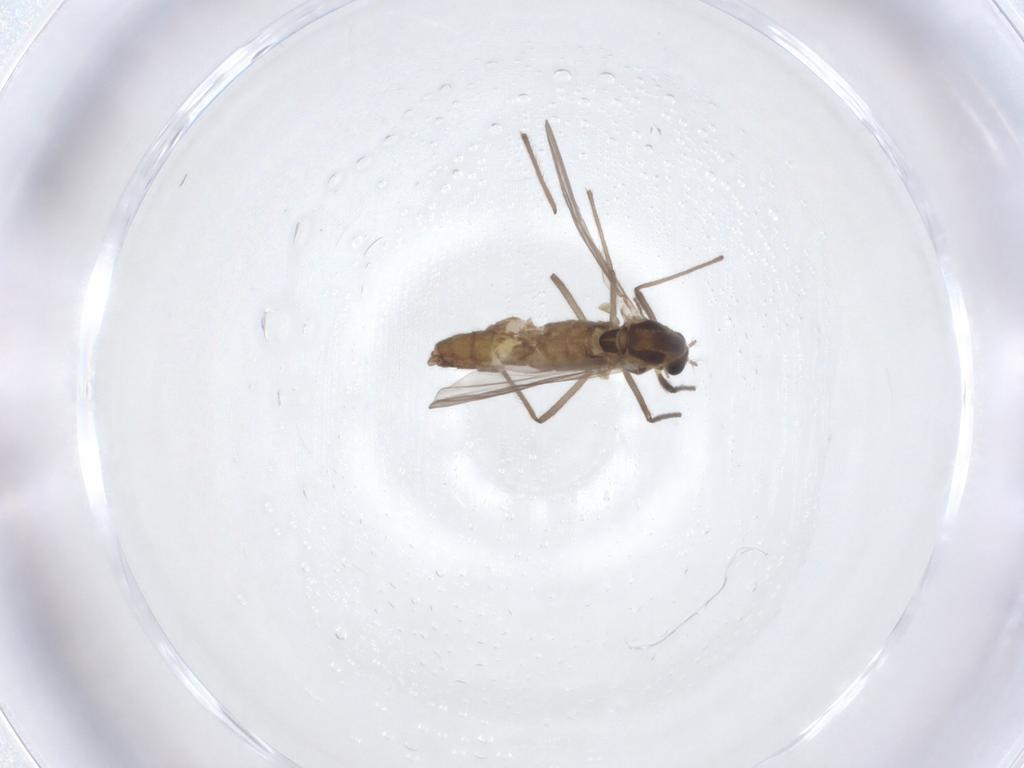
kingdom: Animalia
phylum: Arthropoda
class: Insecta
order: Diptera
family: Chironomidae
